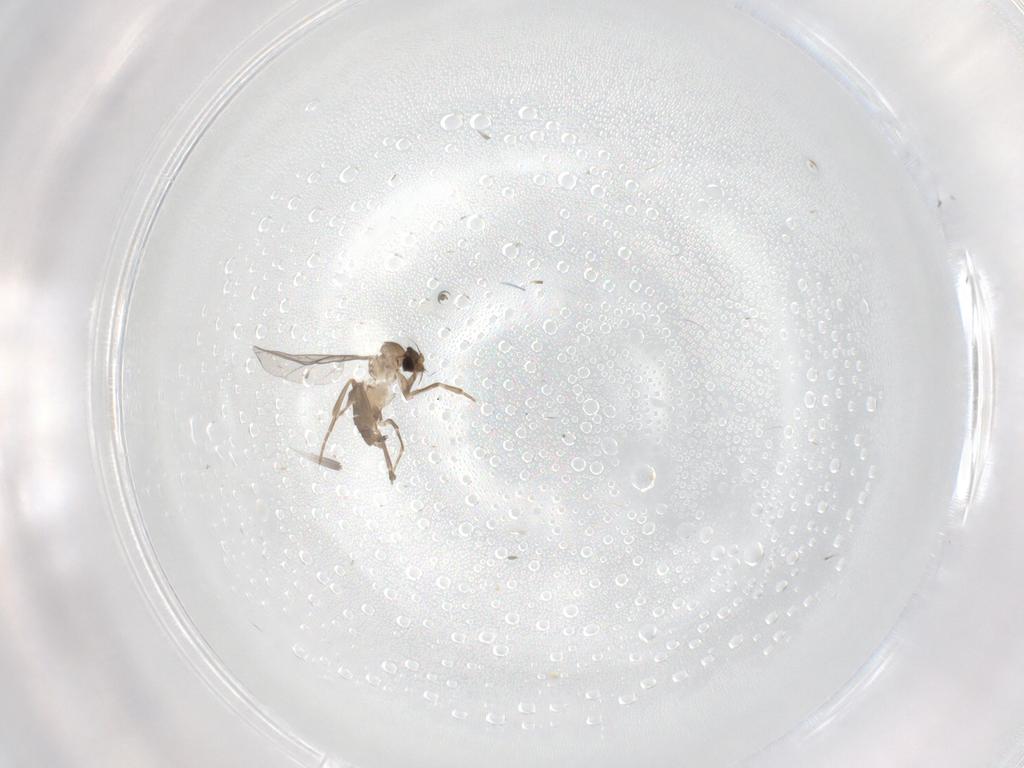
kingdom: Animalia
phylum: Arthropoda
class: Insecta
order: Diptera
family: Cecidomyiidae
